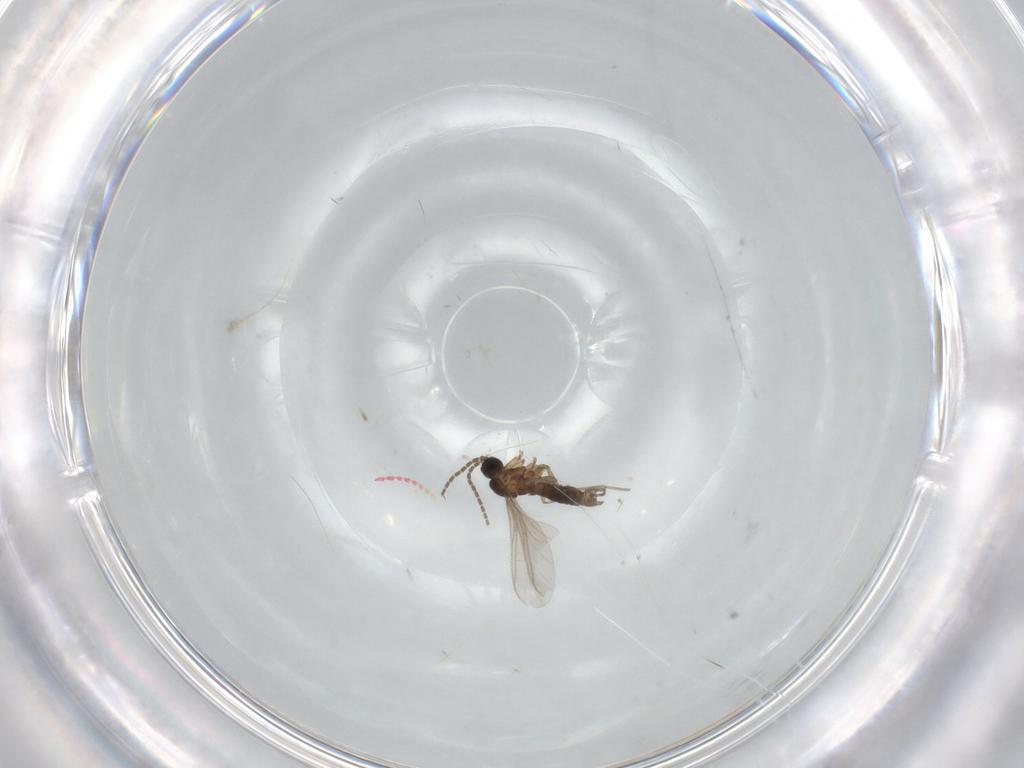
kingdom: Animalia
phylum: Arthropoda
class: Insecta
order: Diptera
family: Sciaridae
